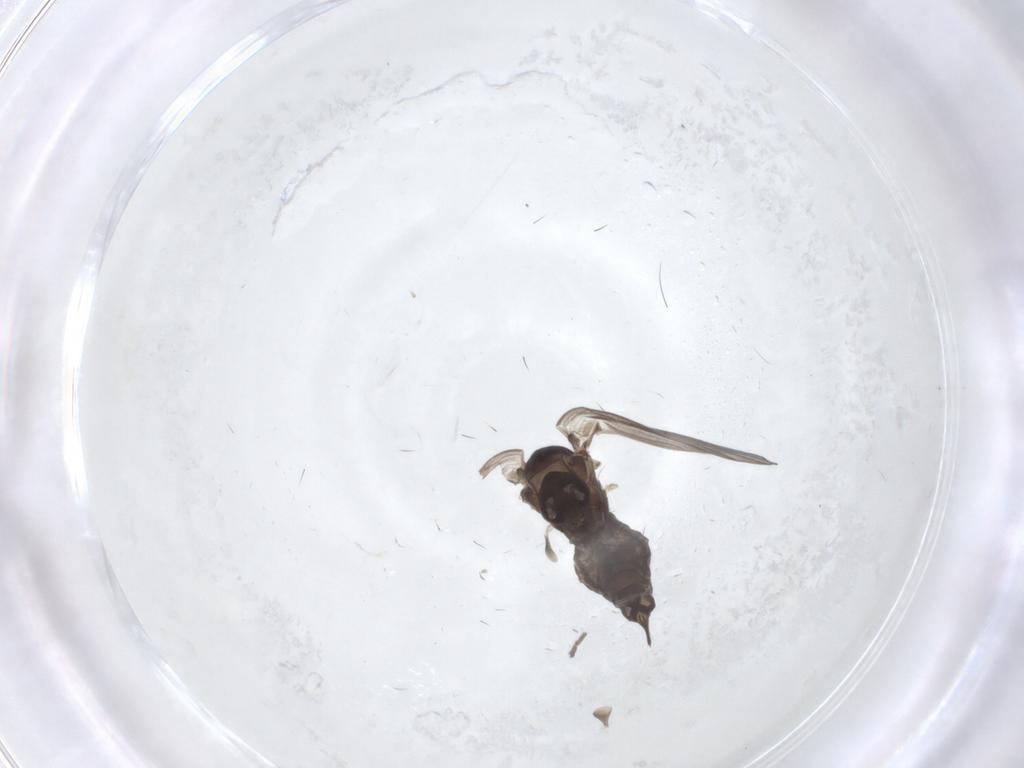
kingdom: Animalia
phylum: Arthropoda
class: Insecta
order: Diptera
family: Psychodidae
